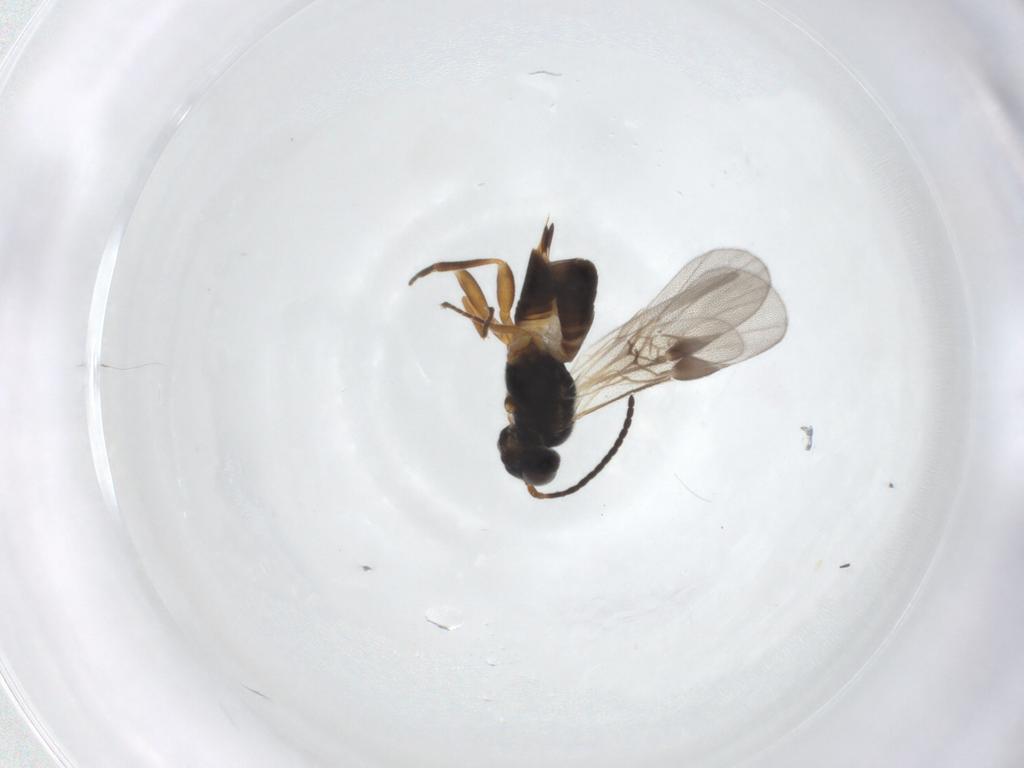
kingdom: Animalia
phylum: Arthropoda
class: Insecta
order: Hymenoptera
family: Braconidae
